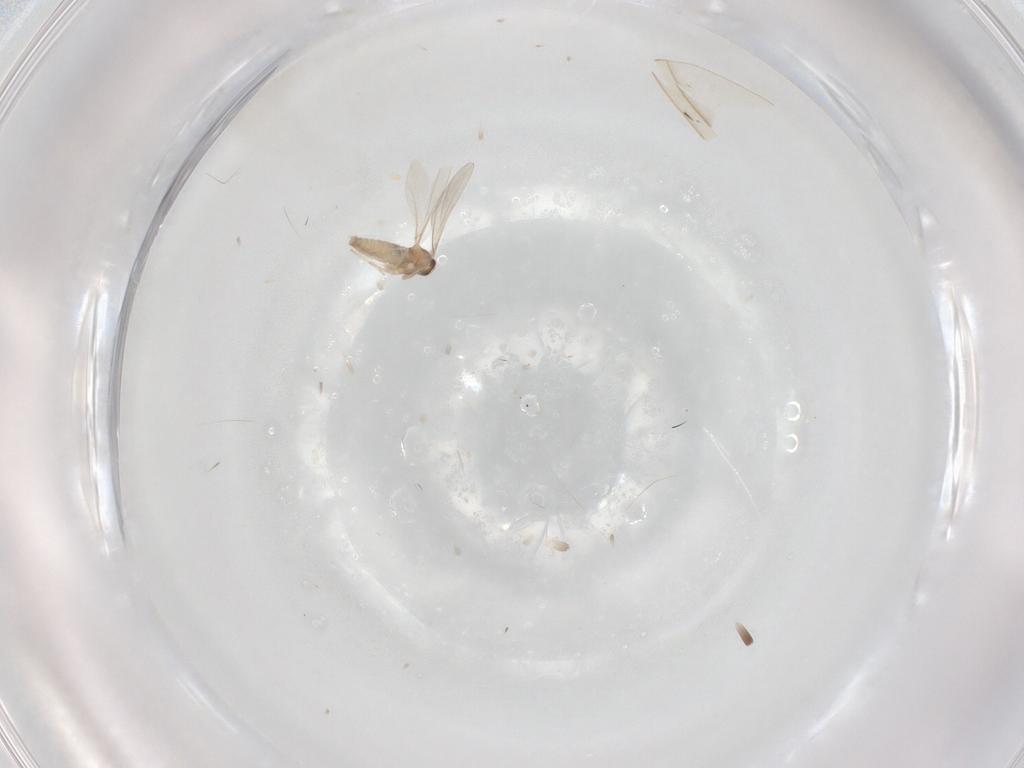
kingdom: Animalia
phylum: Arthropoda
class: Insecta
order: Diptera
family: Cecidomyiidae
